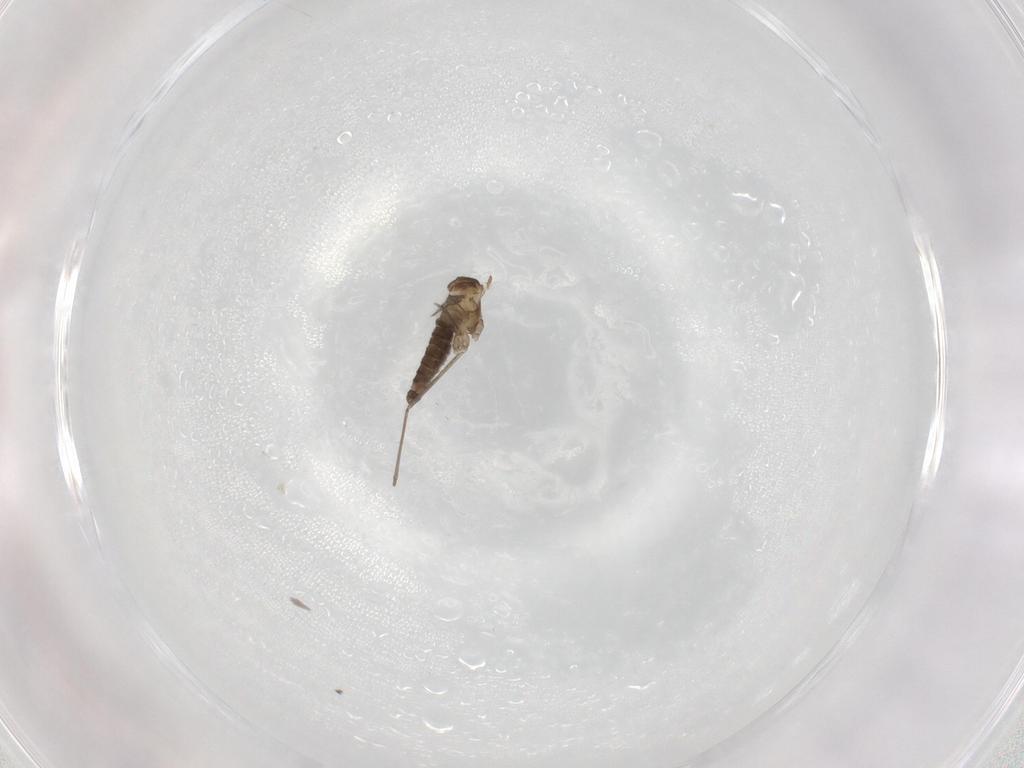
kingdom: Animalia
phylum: Arthropoda
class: Insecta
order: Diptera
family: Cecidomyiidae
